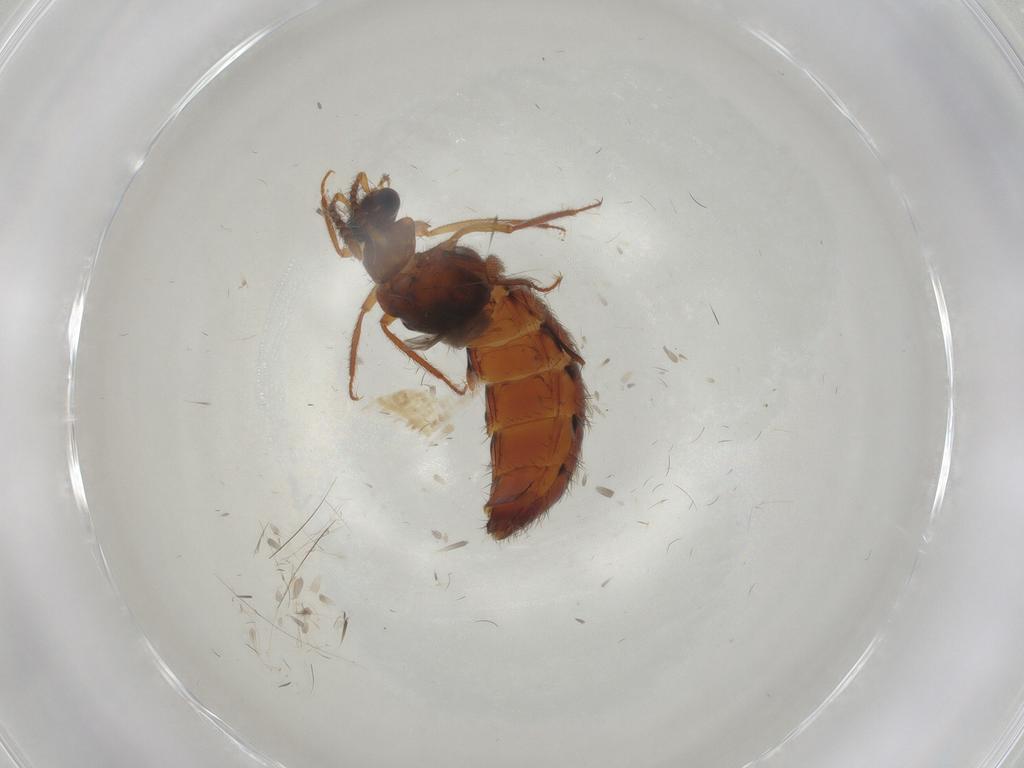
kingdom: Animalia
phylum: Arthropoda
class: Insecta
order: Coleoptera
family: Staphylinidae
